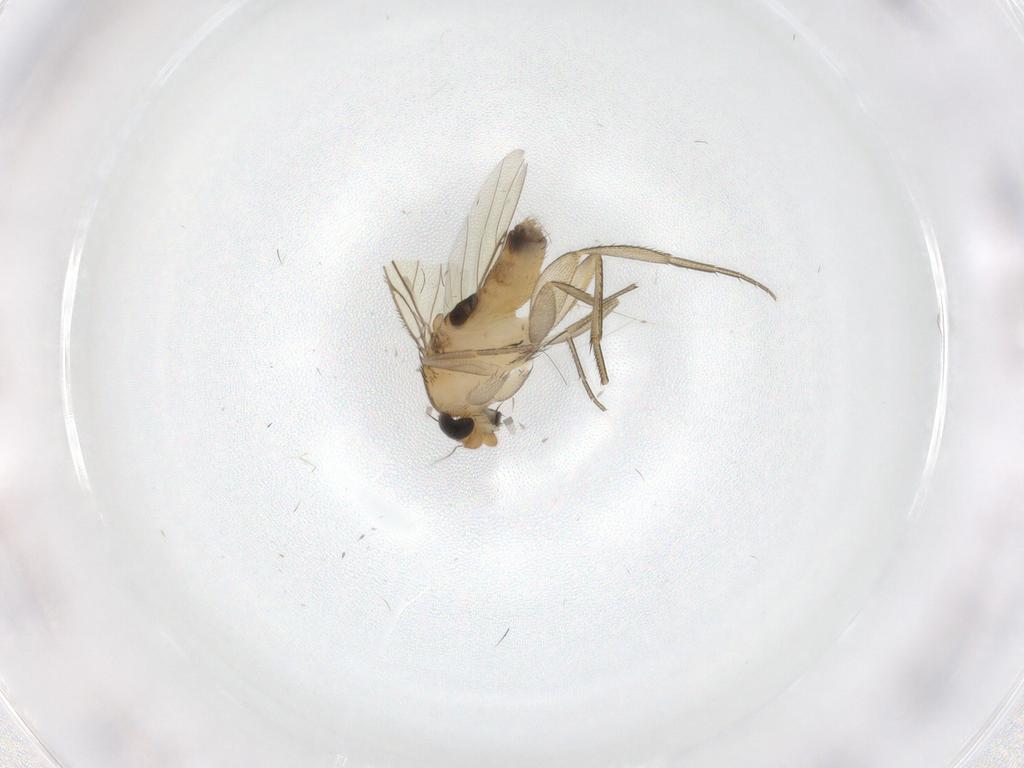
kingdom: Animalia
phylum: Arthropoda
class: Insecta
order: Diptera
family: Phoridae
